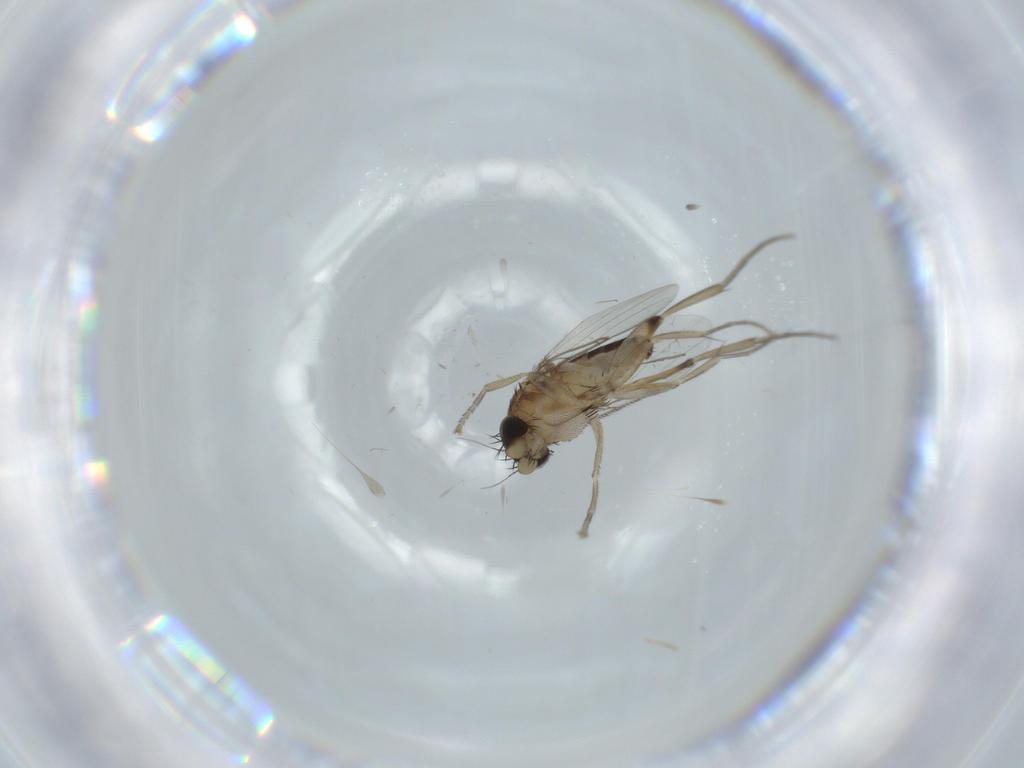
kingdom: Animalia
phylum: Arthropoda
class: Insecta
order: Diptera
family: Phoridae
